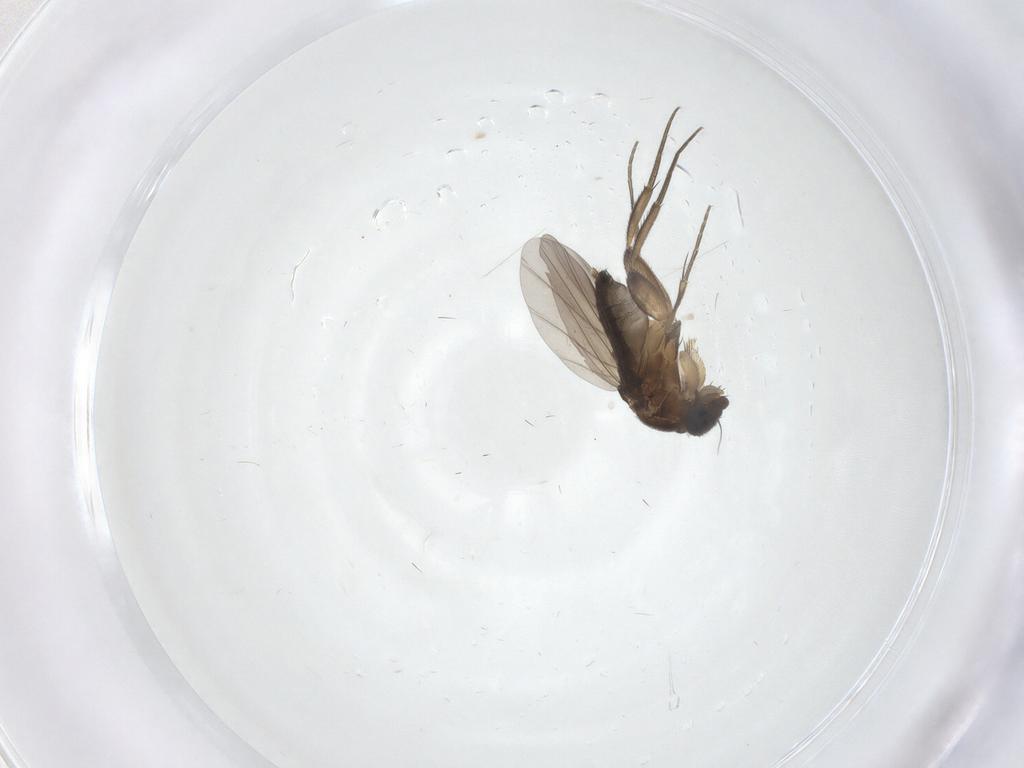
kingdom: Animalia
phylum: Arthropoda
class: Insecta
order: Diptera
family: Phoridae
